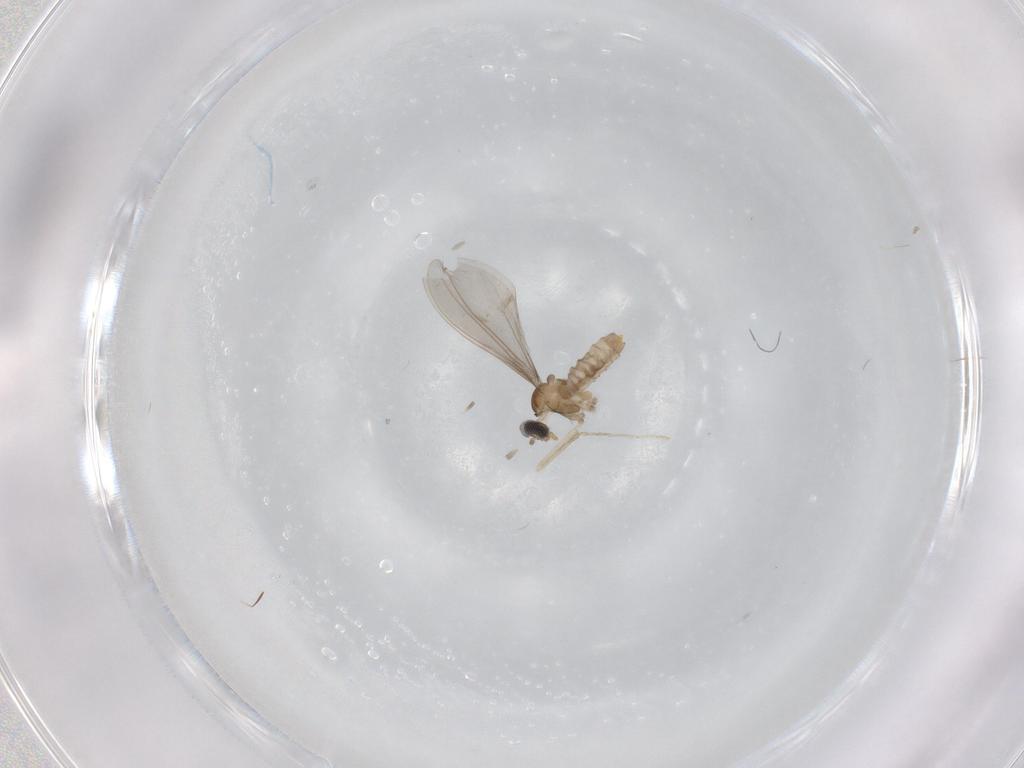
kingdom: Animalia
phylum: Arthropoda
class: Insecta
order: Diptera
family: Cecidomyiidae
